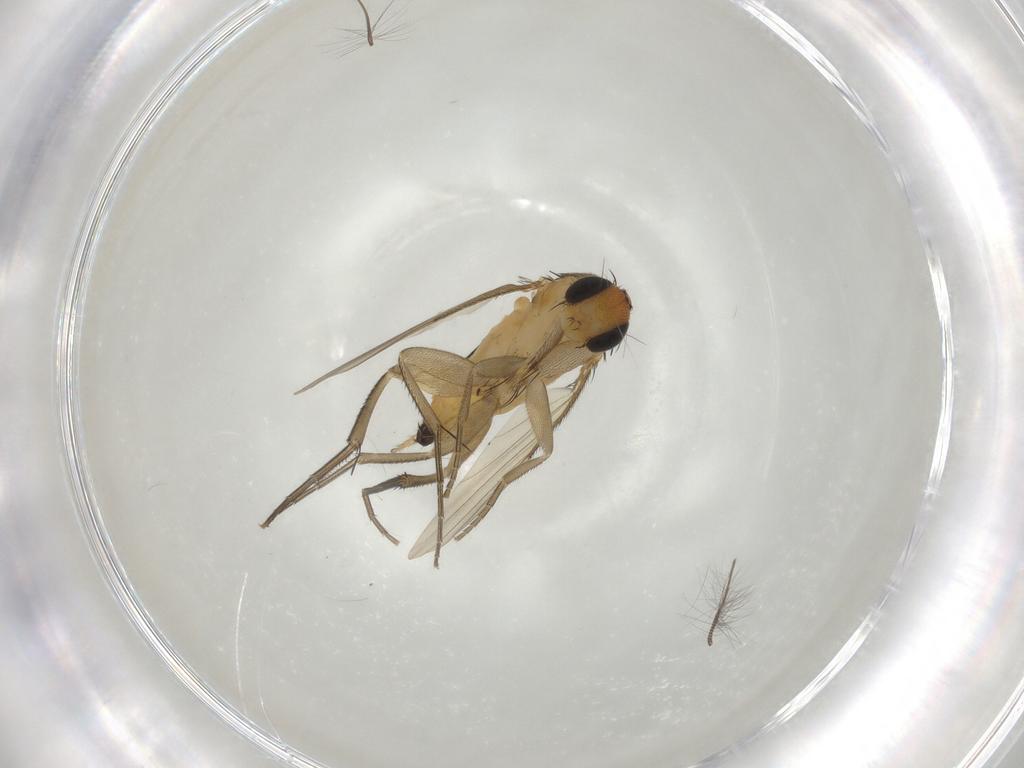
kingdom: Animalia
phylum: Arthropoda
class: Insecta
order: Diptera
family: Phoridae
